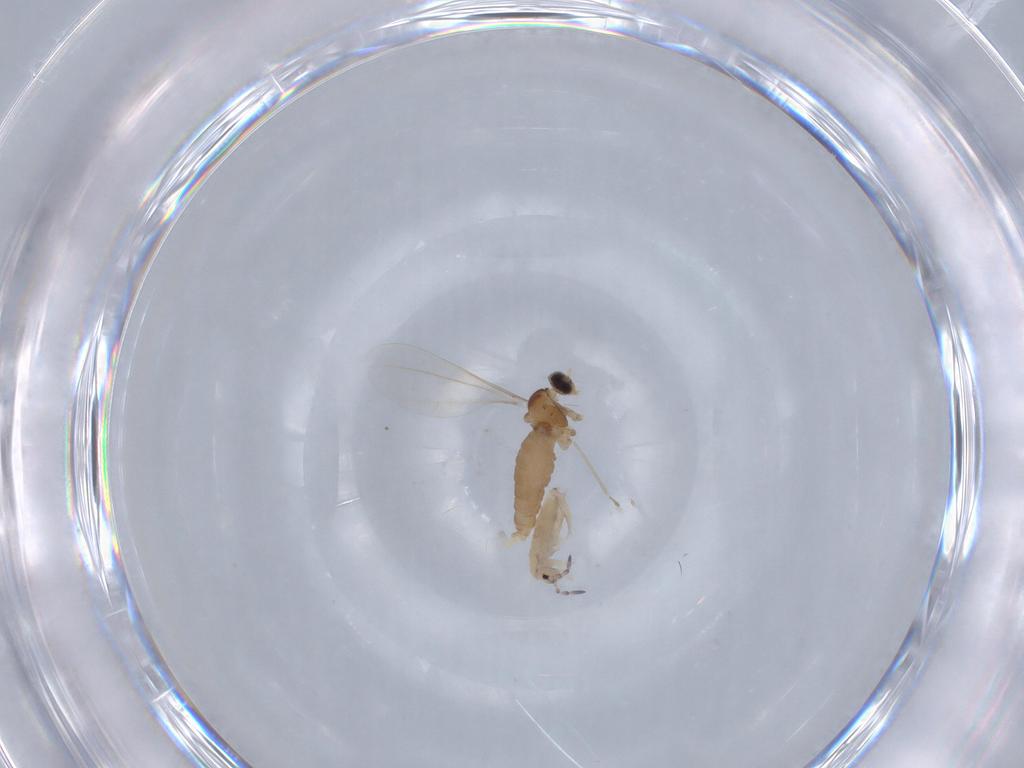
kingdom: Animalia
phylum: Arthropoda
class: Insecta
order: Diptera
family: Cecidomyiidae
